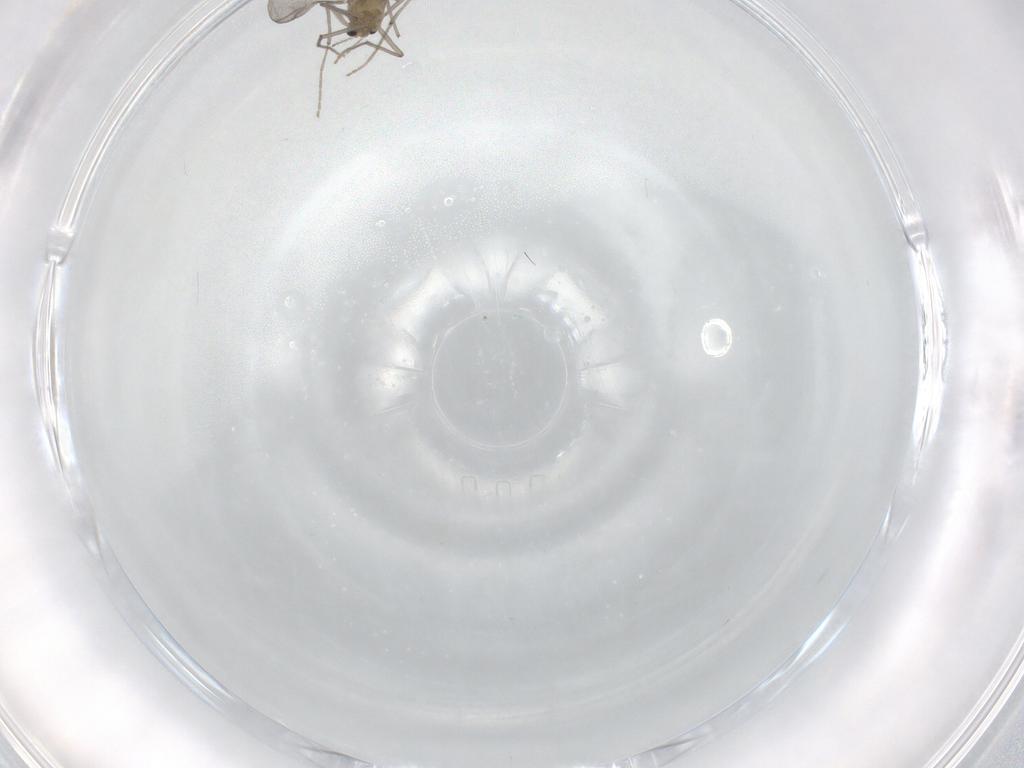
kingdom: Animalia
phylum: Arthropoda
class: Insecta
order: Diptera
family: Chironomidae
